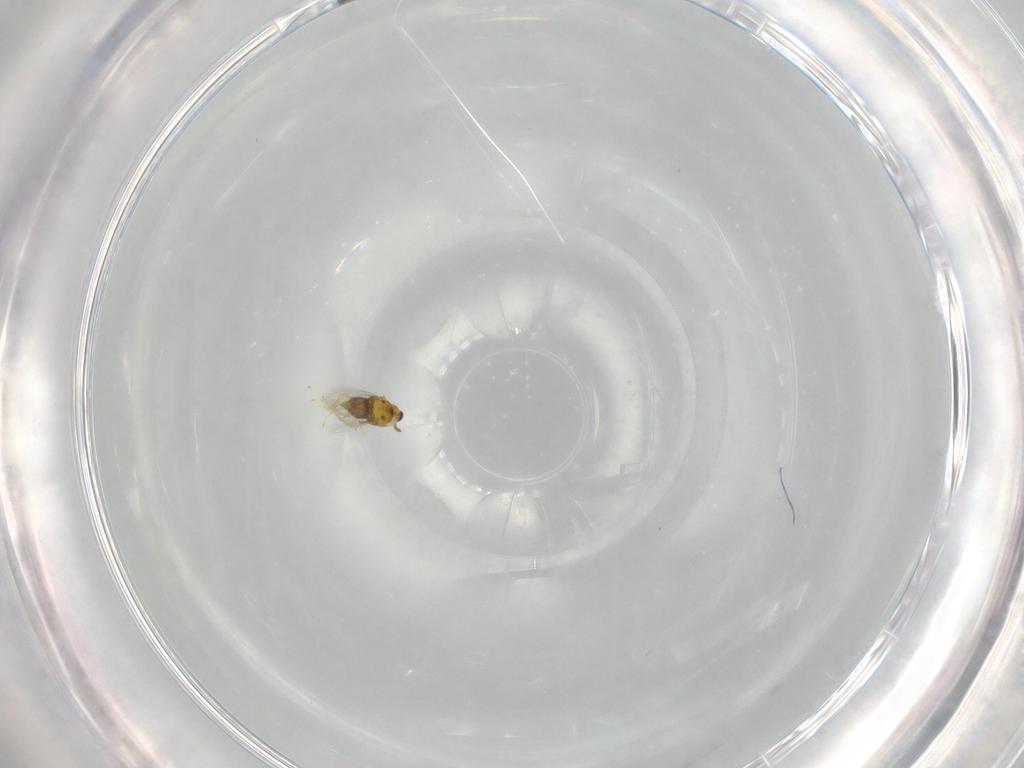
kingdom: Animalia
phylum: Arthropoda
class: Insecta
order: Hymenoptera
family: Aphelinidae
